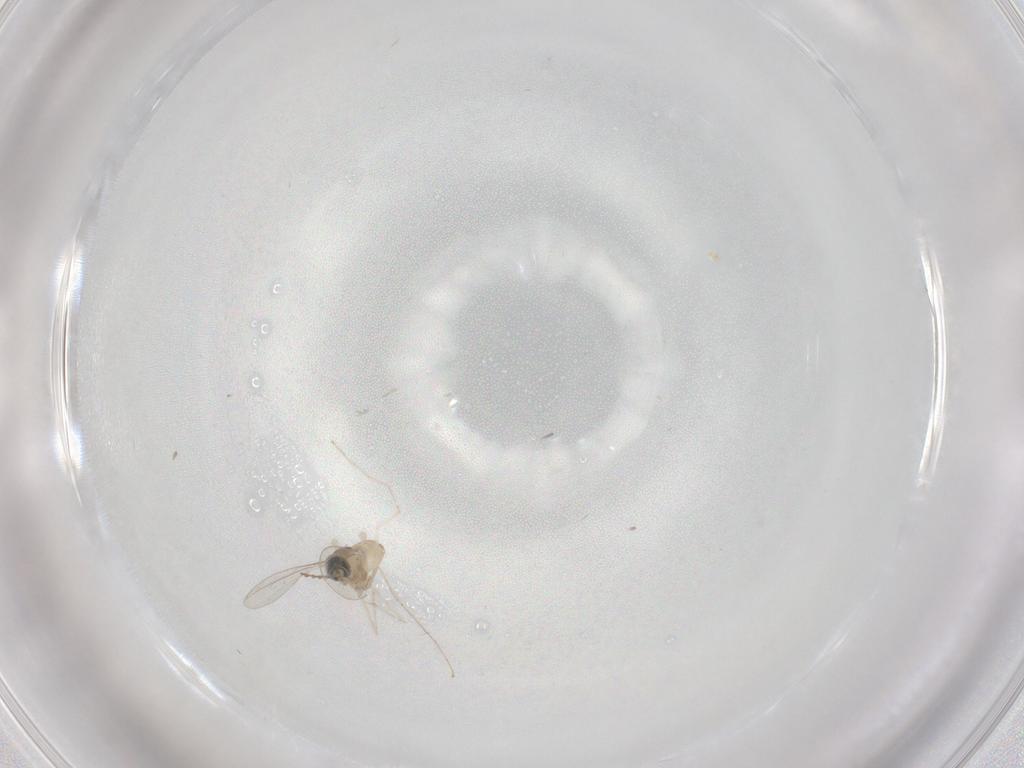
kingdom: Animalia
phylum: Arthropoda
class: Insecta
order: Diptera
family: Cecidomyiidae
